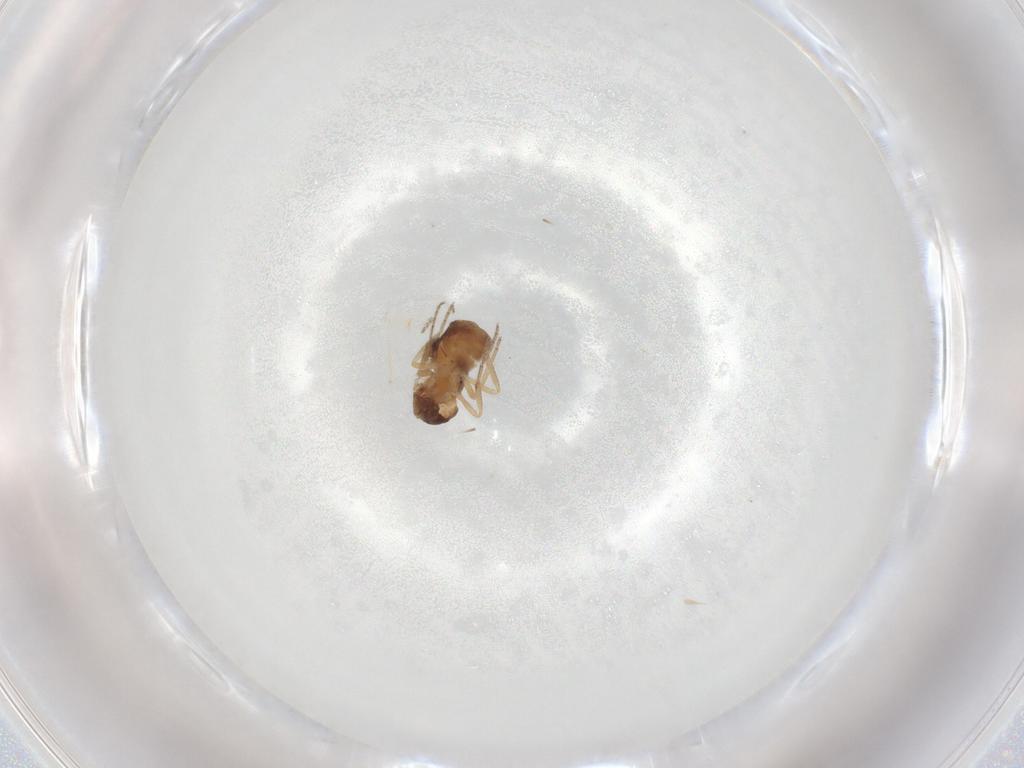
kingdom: Animalia
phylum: Arthropoda
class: Insecta
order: Diptera
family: Ceratopogonidae
